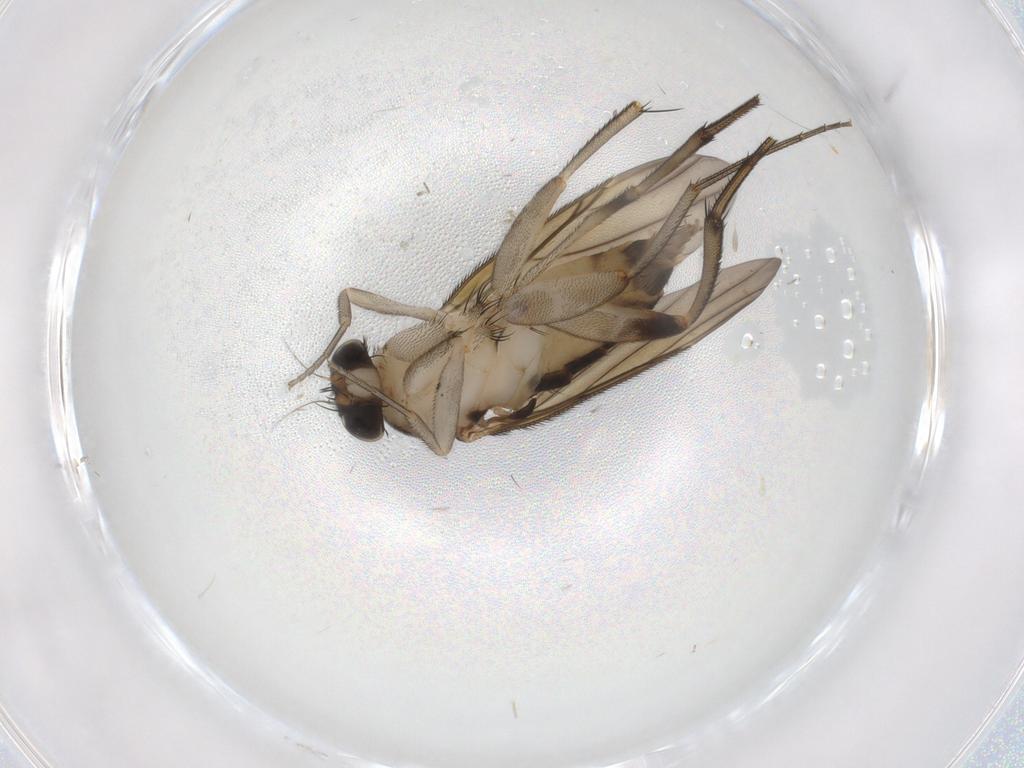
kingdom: Animalia
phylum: Arthropoda
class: Insecta
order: Diptera
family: Phoridae
